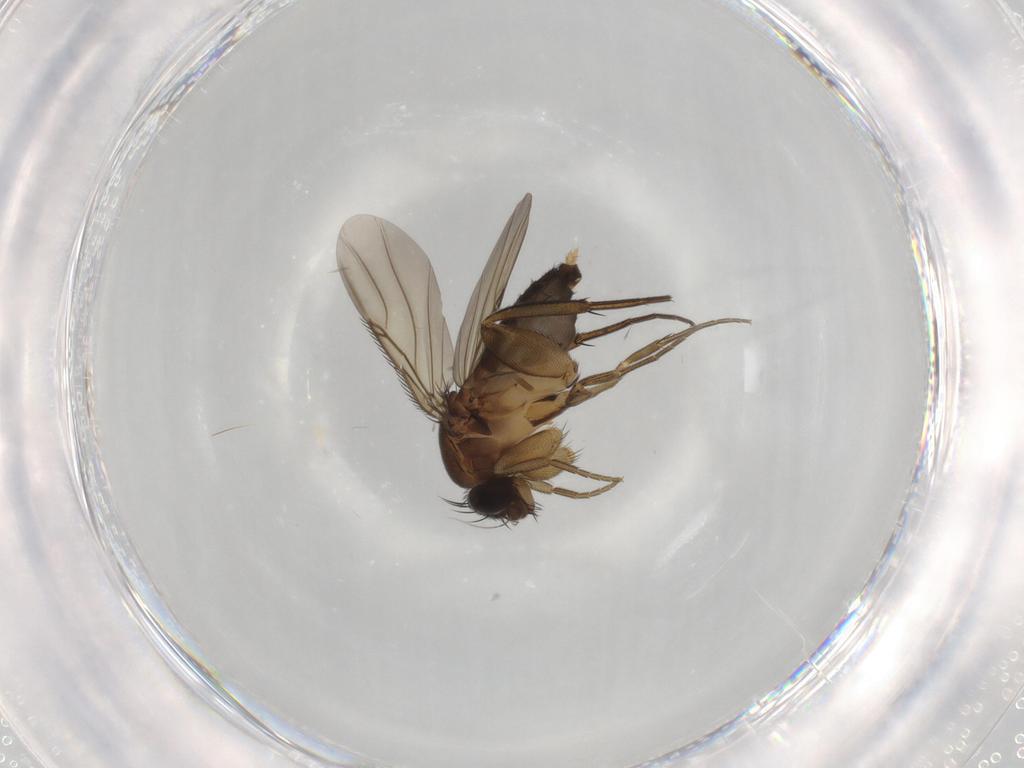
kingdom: Animalia
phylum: Arthropoda
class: Insecta
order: Diptera
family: Phoridae
